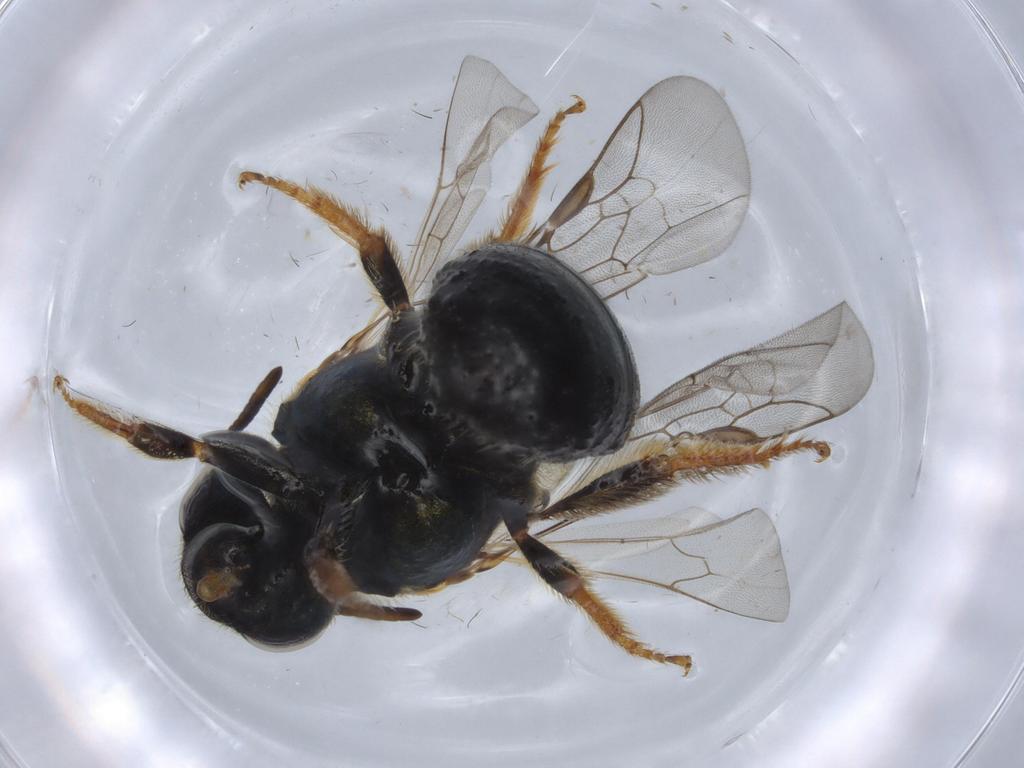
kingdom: Animalia
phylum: Arthropoda
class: Insecta
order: Hymenoptera
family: Halictidae
